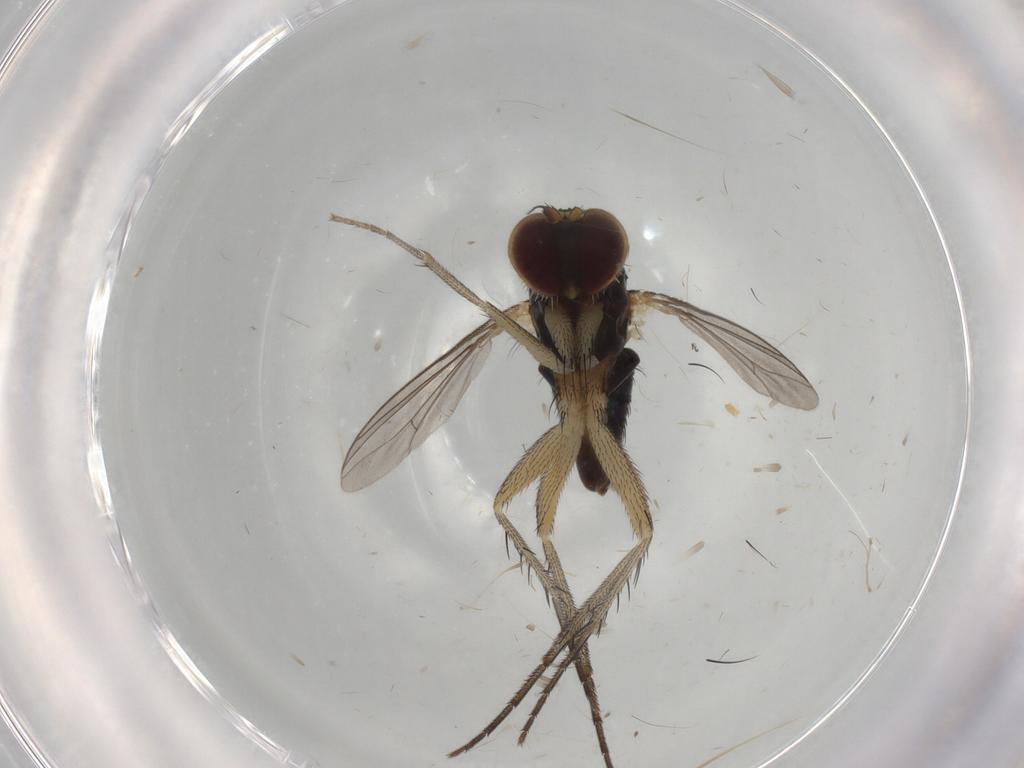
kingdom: Animalia
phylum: Arthropoda
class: Insecta
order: Diptera
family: Dolichopodidae
